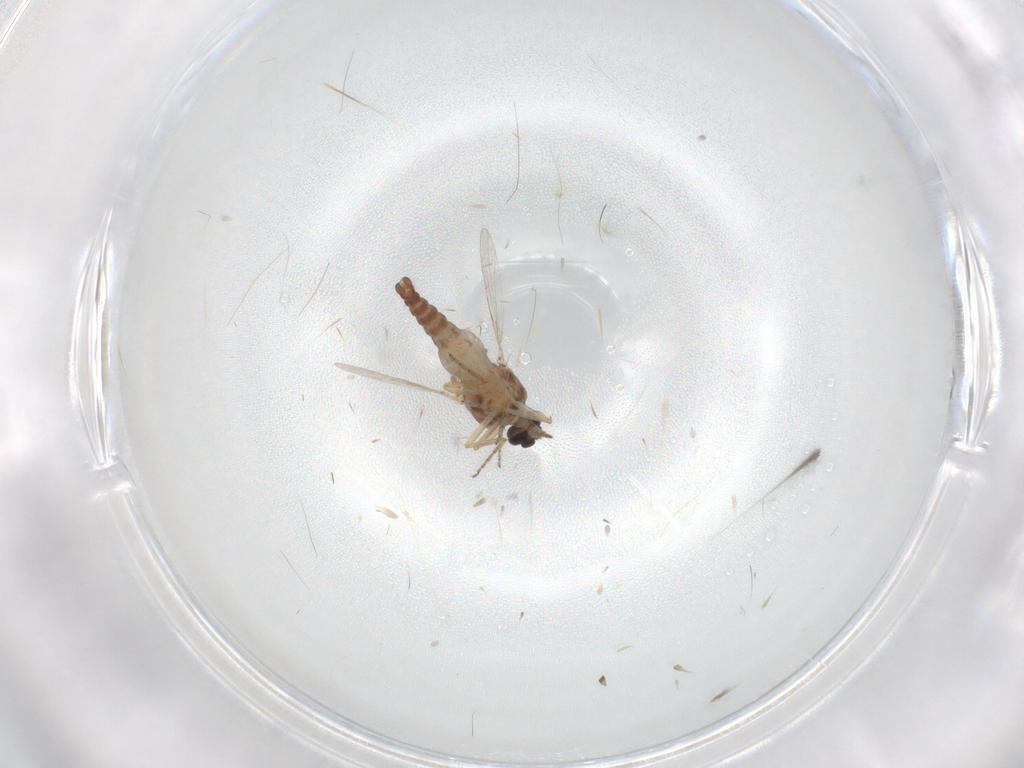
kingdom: Animalia
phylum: Arthropoda
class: Insecta
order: Diptera
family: Ceratopogonidae
